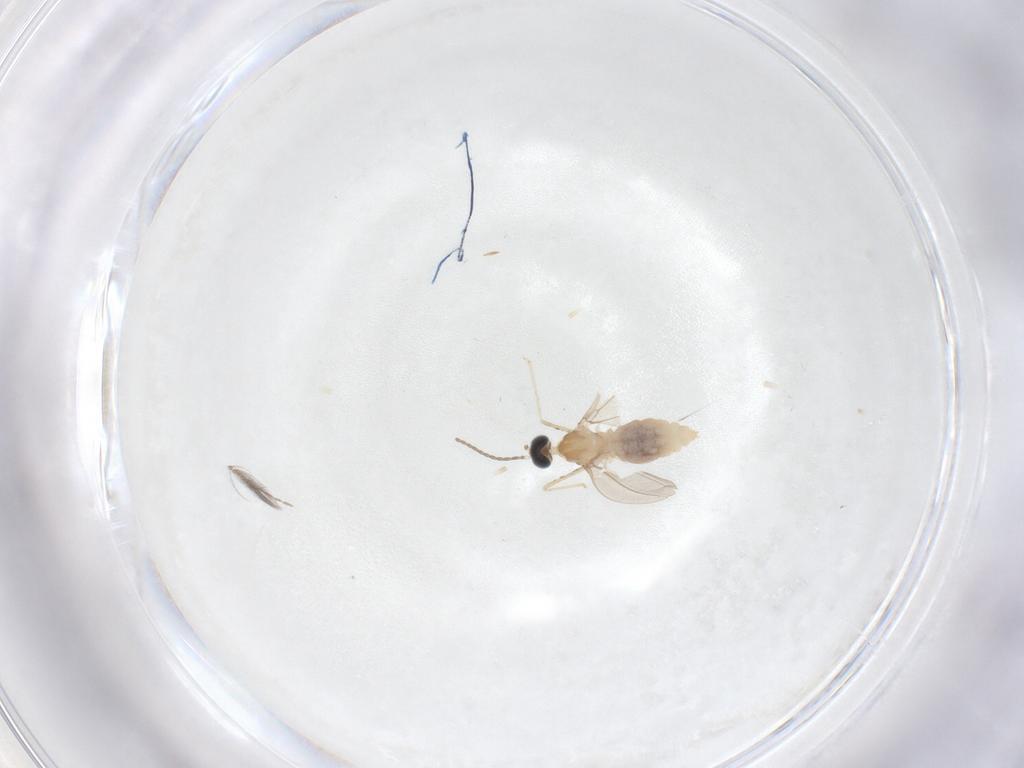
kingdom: Animalia
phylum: Arthropoda
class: Insecta
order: Diptera
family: Cecidomyiidae
